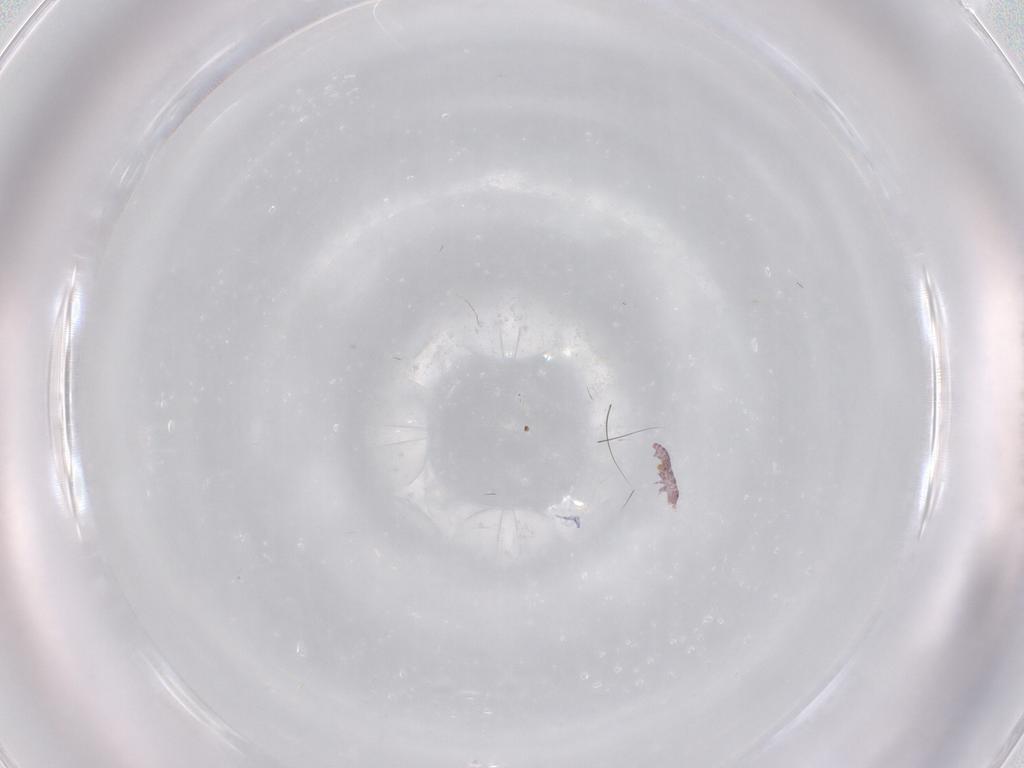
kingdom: Animalia
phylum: Arthropoda
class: Collembola
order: Poduromorpha
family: Hypogastruridae
